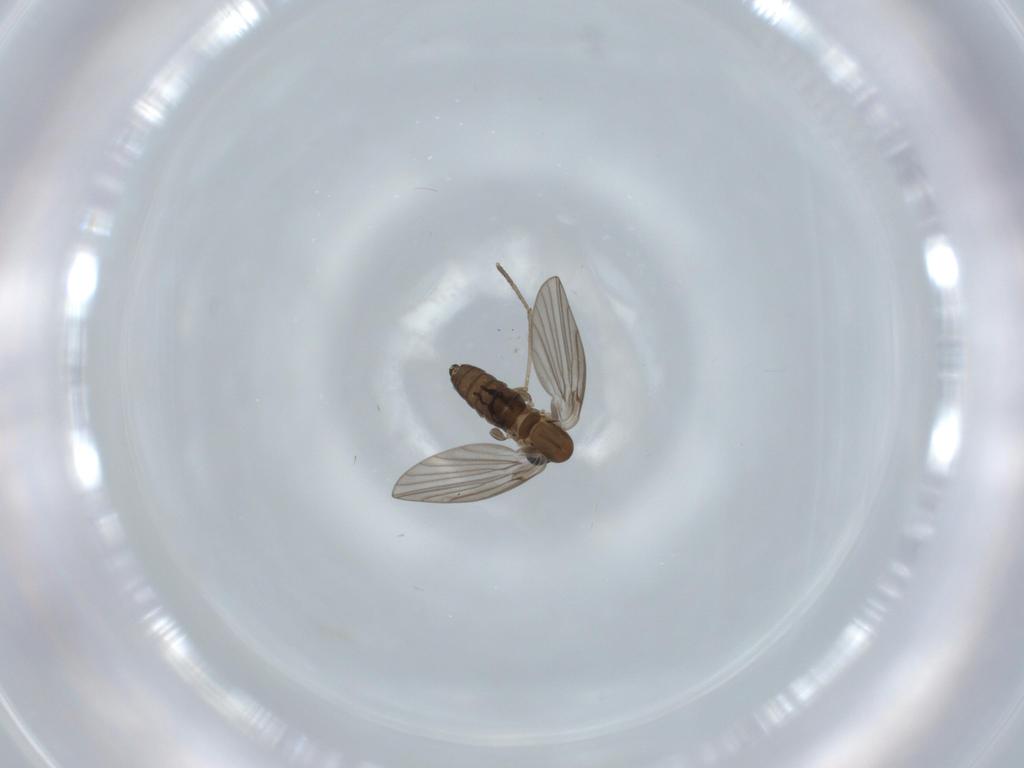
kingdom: Animalia
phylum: Arthropoda
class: Insecta
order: Diptera
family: Psychodidae
